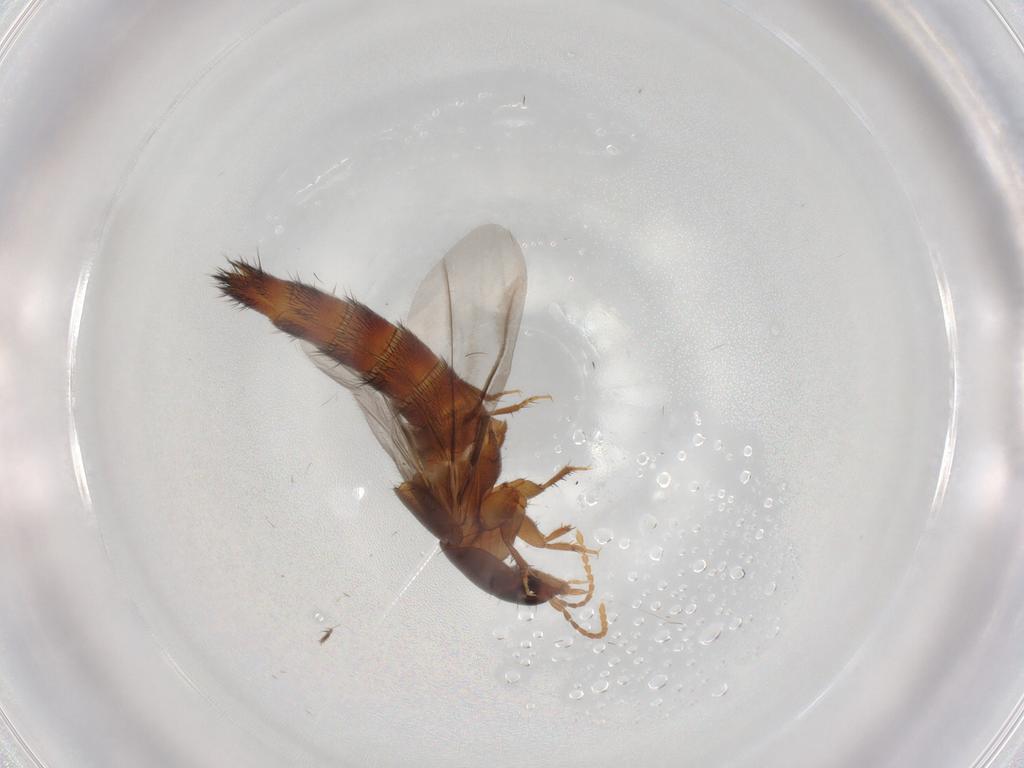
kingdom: Animalia
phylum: Arthropoda
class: Insecta
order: Coleoptera
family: Staphylinidae
